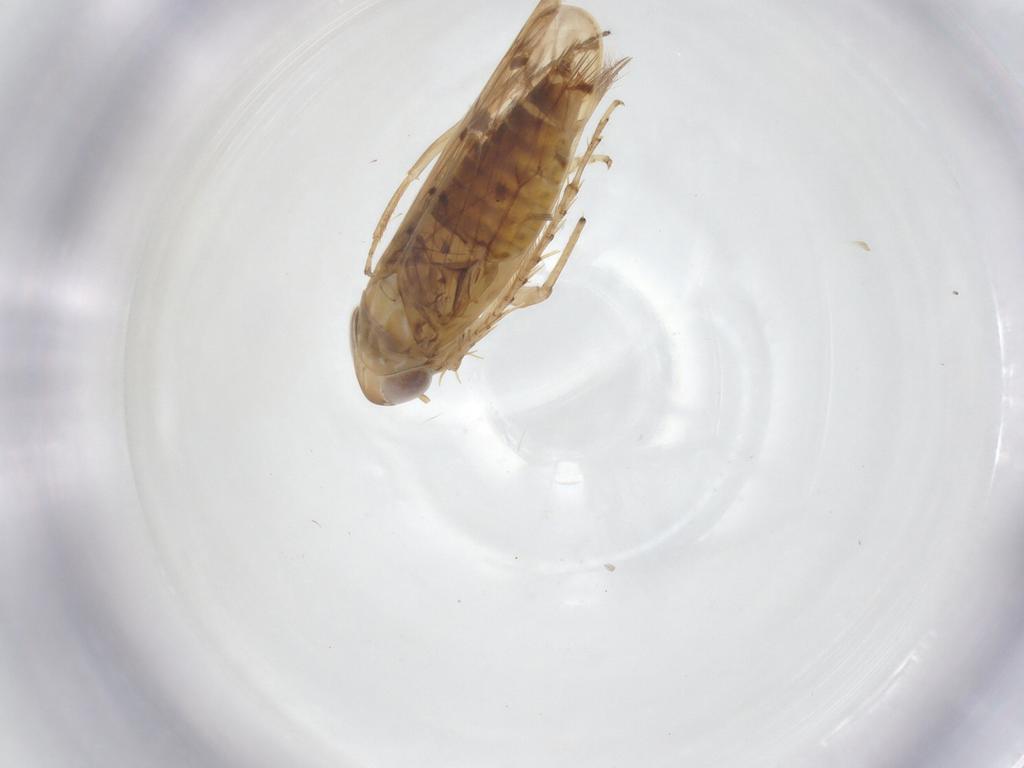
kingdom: Animalia
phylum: Arthropoda
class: Insecta
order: Hemiptera
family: Cicadellidae
